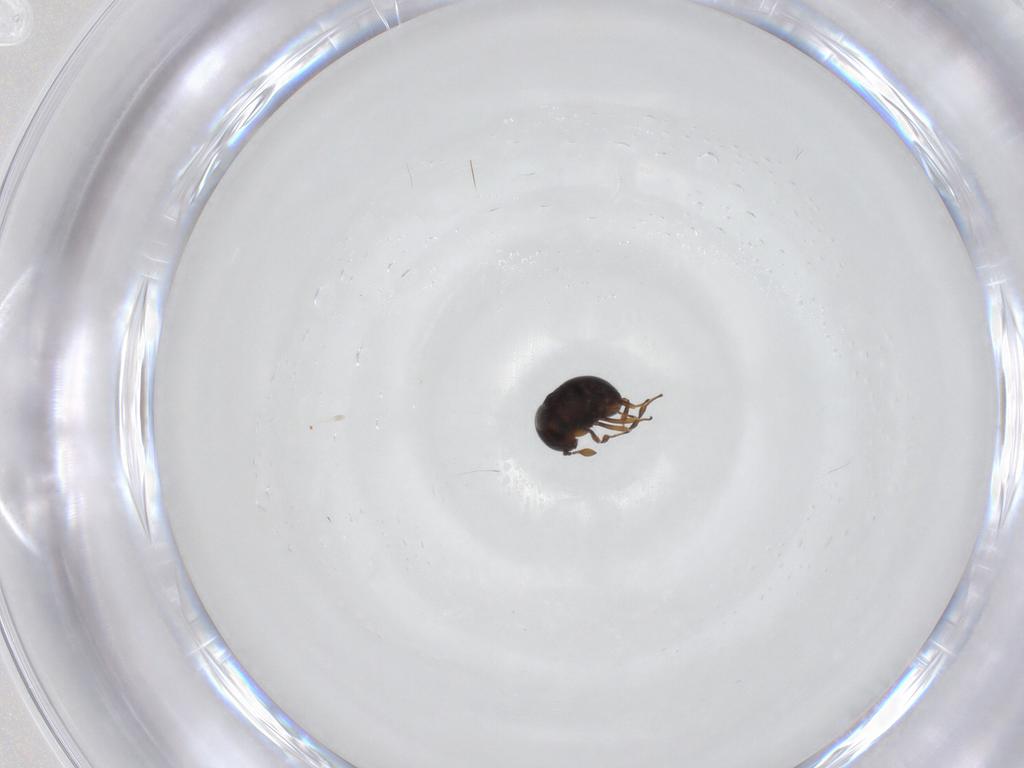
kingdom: Animalia
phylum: Arthropoda
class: Insecta
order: Hymenoptera
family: Scelionidae
